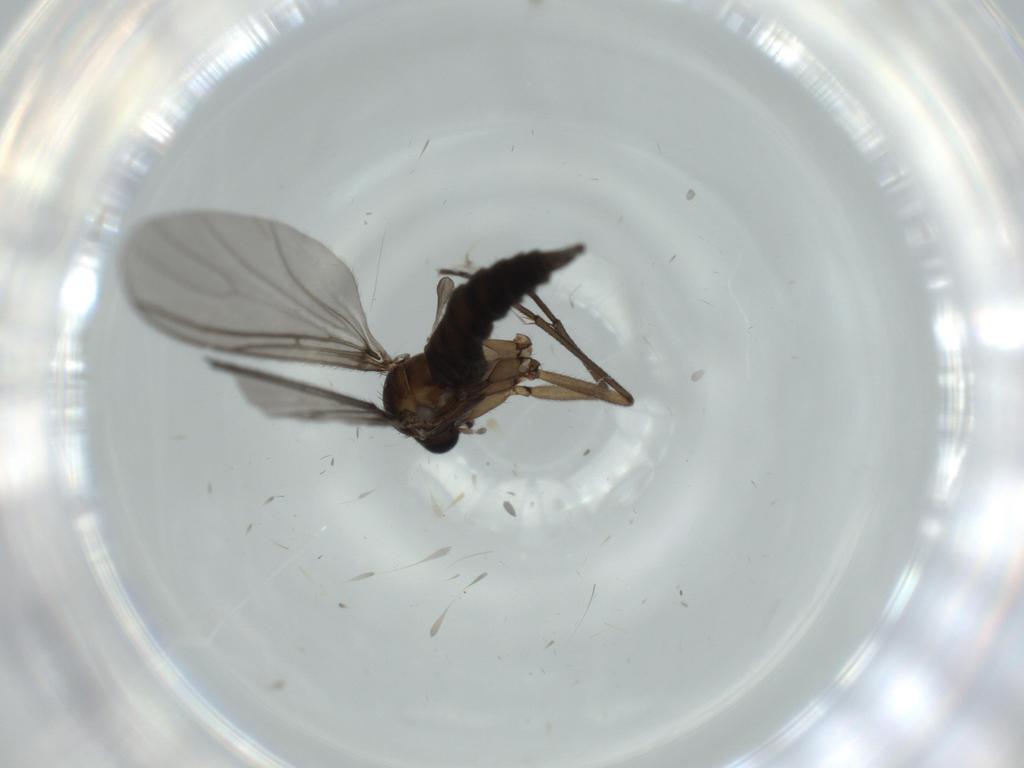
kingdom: Animalia
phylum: Arthropoda
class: Insecta
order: Diptera
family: Sciaridae
